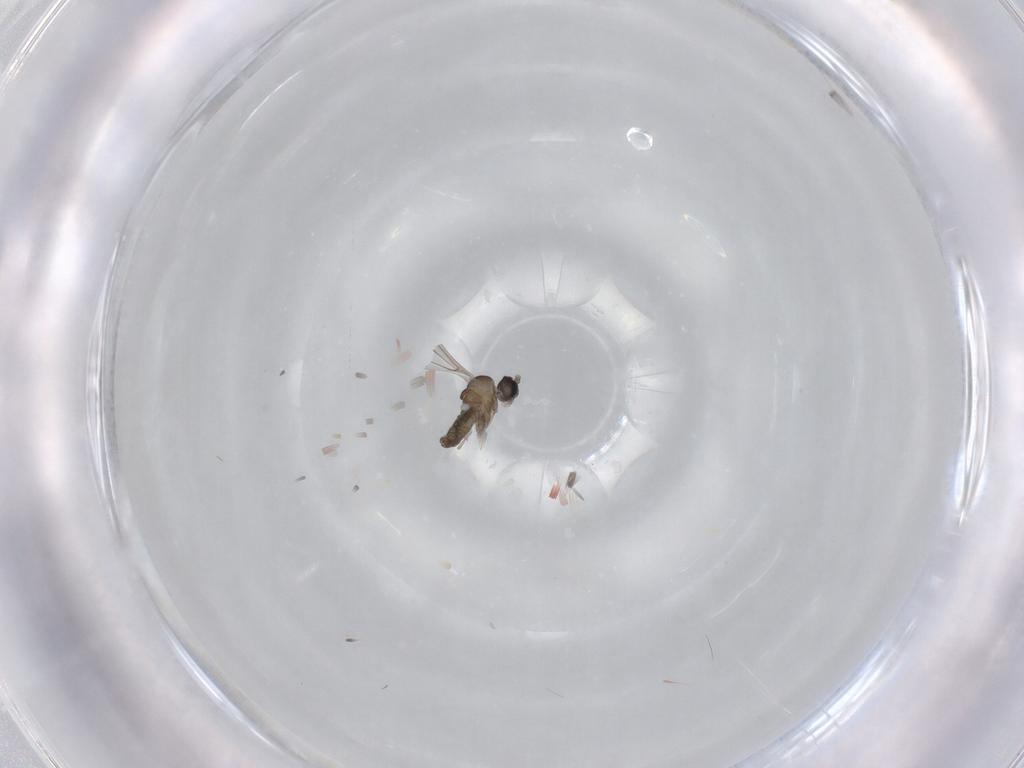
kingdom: Animalia
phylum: Arthropoda
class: Insecta
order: Diptera
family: Cecidomyiidae
